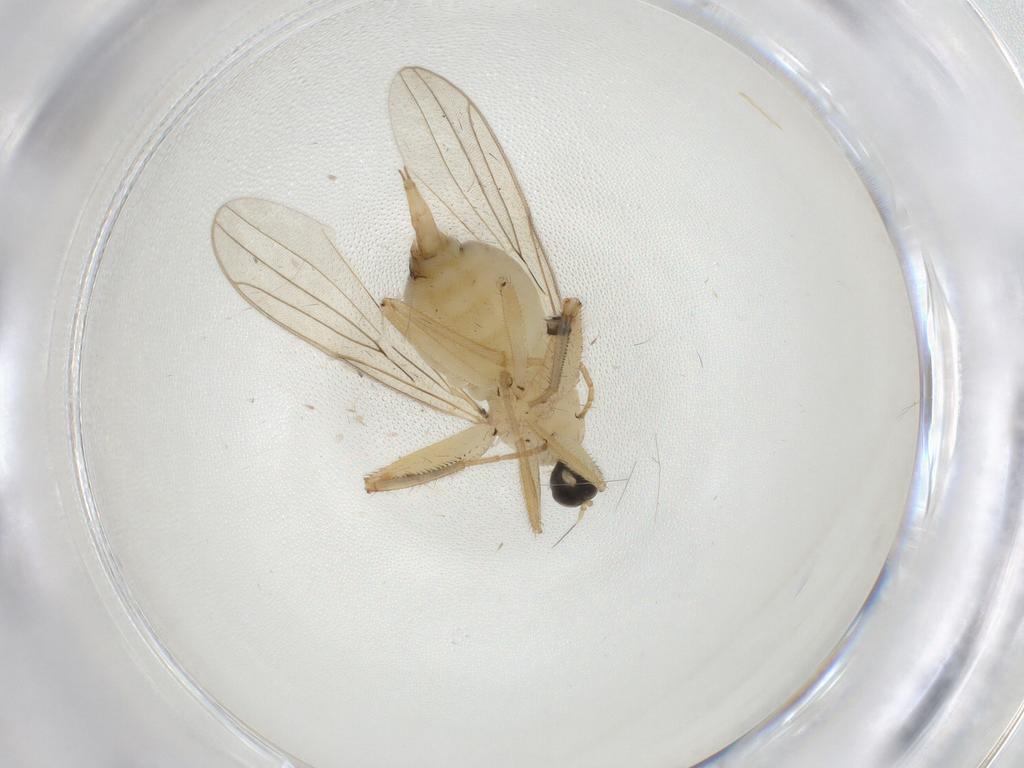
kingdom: Animalia
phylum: Arthropoda
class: Insecta
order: Diptera
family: Hybotidae
